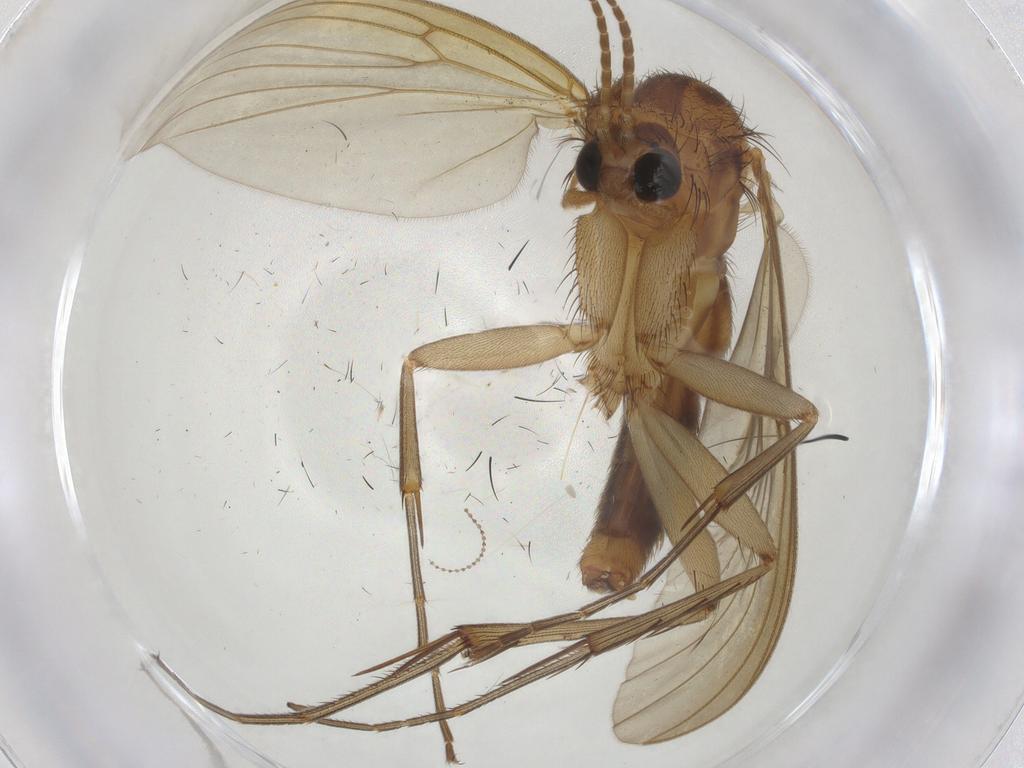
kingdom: Animalia
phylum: Arthropoda
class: Insecta
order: Diptera
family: Mycetophilidae
